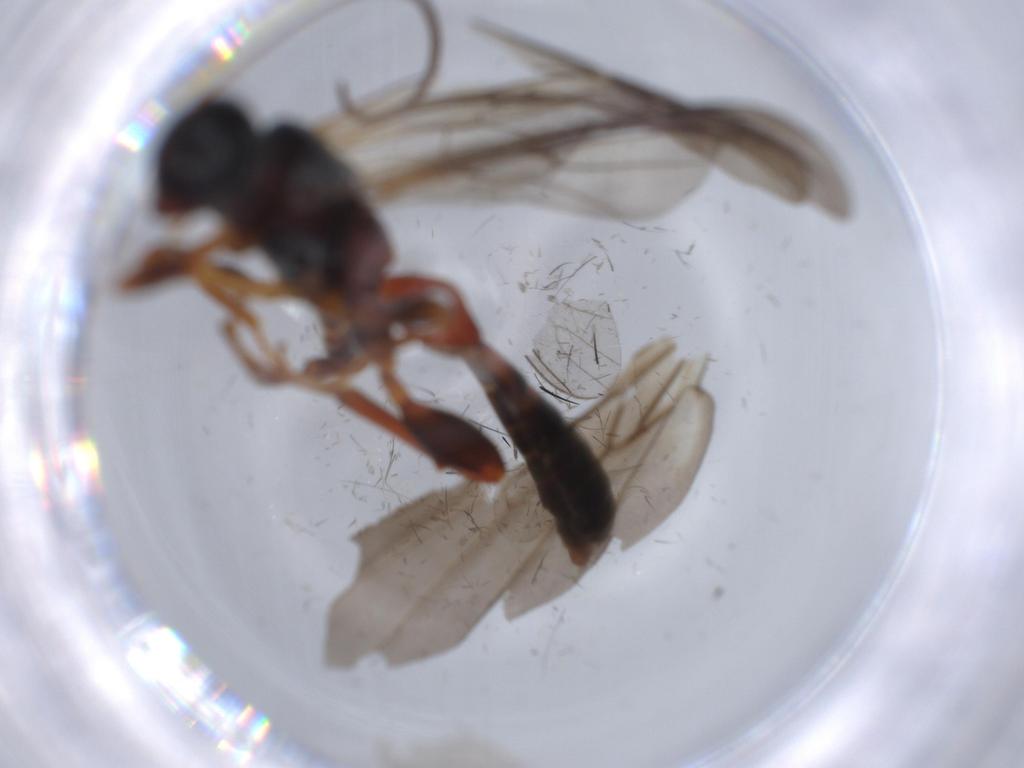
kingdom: Animalia
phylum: Arthropoda
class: Insecta
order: Hymenoptera
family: Ichneumonidae
